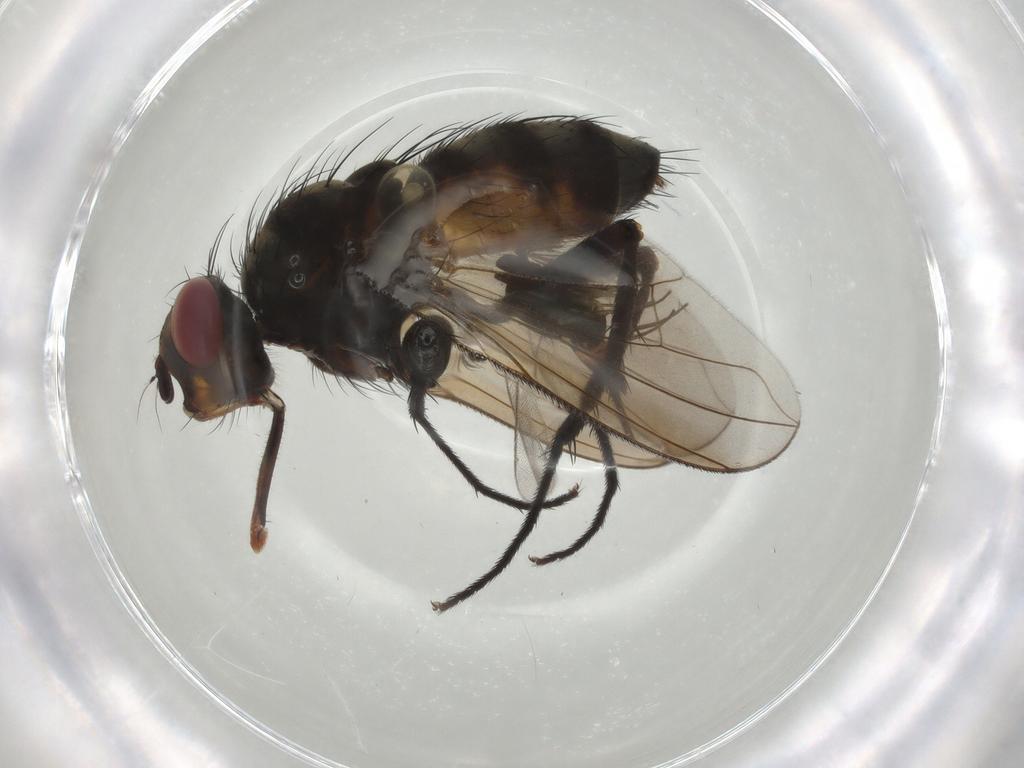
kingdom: Animalia
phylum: Arthropoda
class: Insecta
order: Diptera
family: Tachinidae
